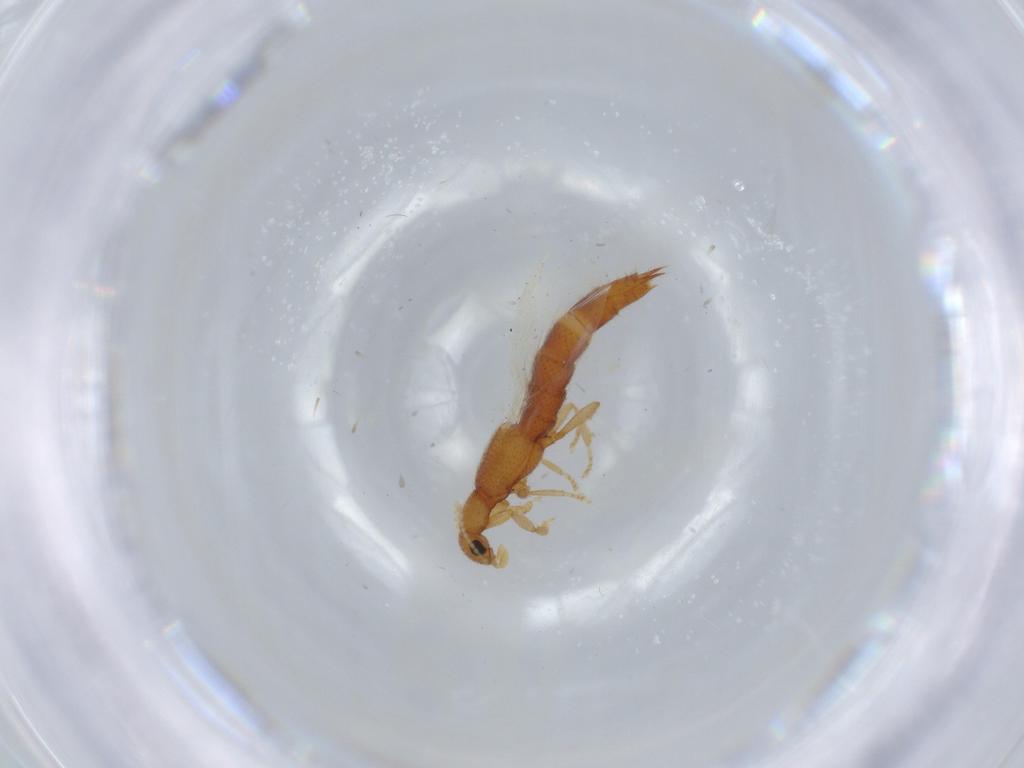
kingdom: Animalia
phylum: Arthropoda
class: Insecta
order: Coleoptera
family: Staphylinidae
